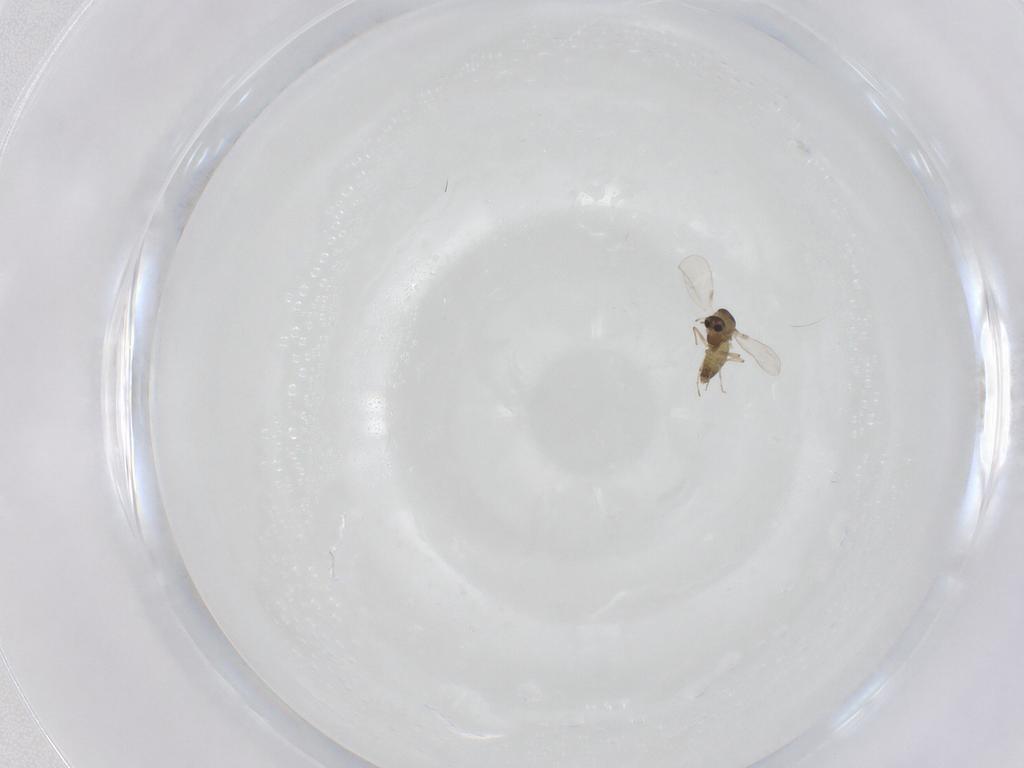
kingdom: Animalia
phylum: Arthropoda
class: Insecta
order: Diptera
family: Chironomidae
